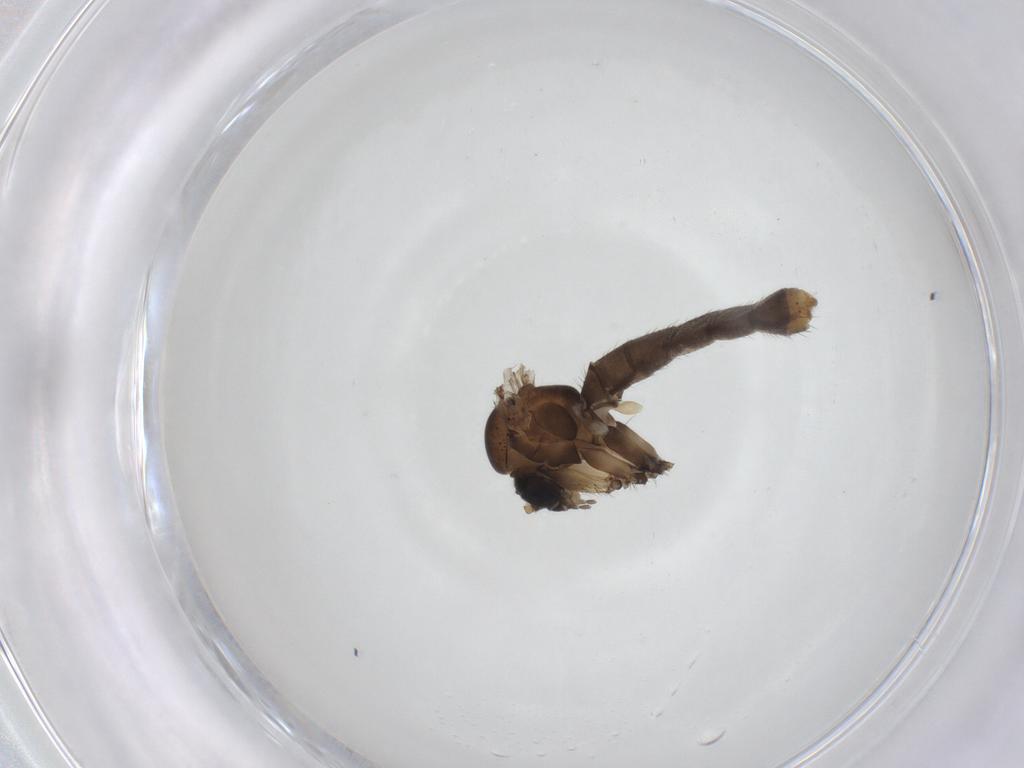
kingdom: Animalia
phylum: Arthropoda
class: Insecta
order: Diptera
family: Mycetophilidae
